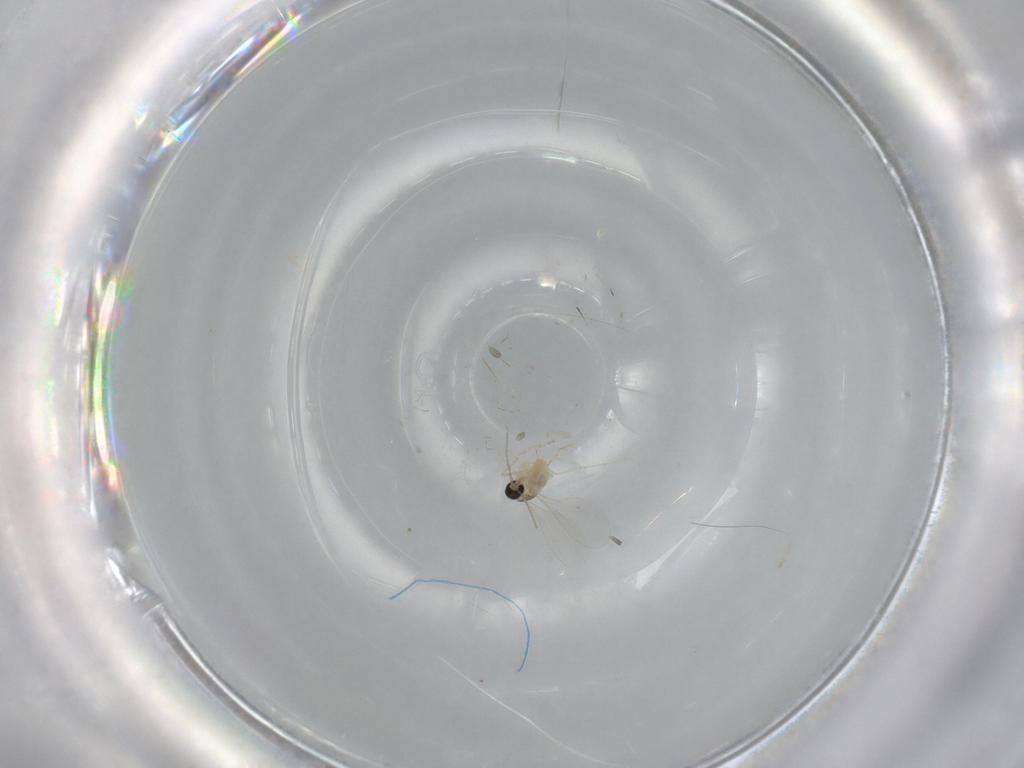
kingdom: Animalia
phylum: Arthropoda
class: Insecta
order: Diptera
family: Cecidomyiidae
